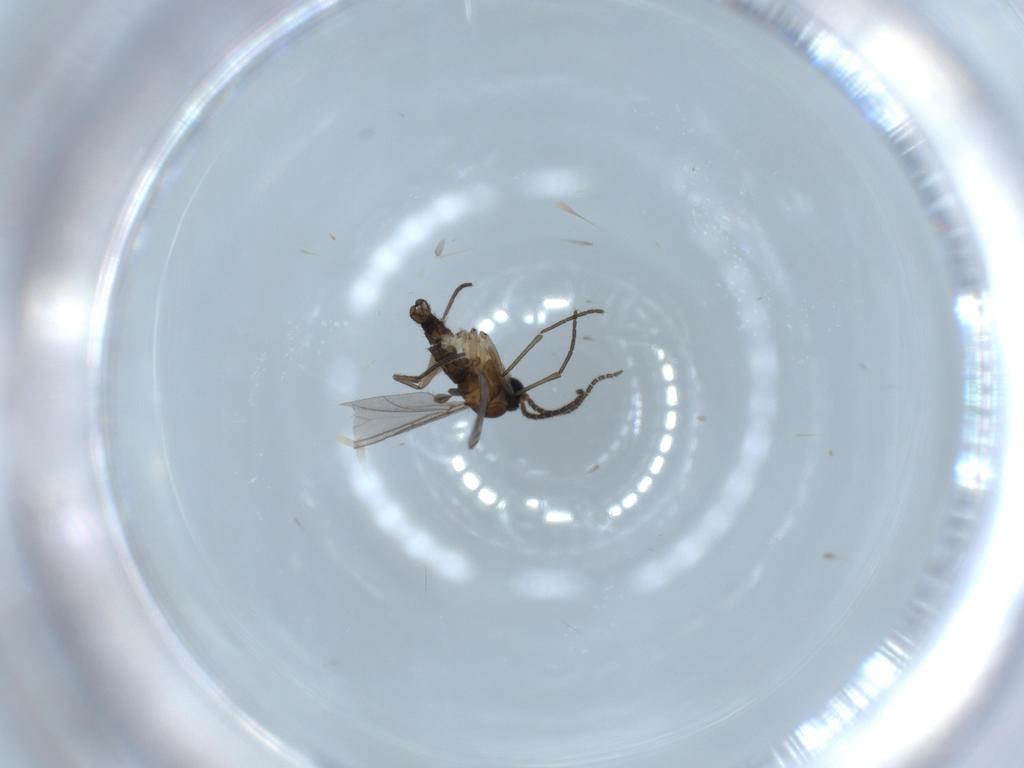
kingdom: Animalia
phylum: Arthropoda
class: Insecta
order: Diptera
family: Sciaridae
